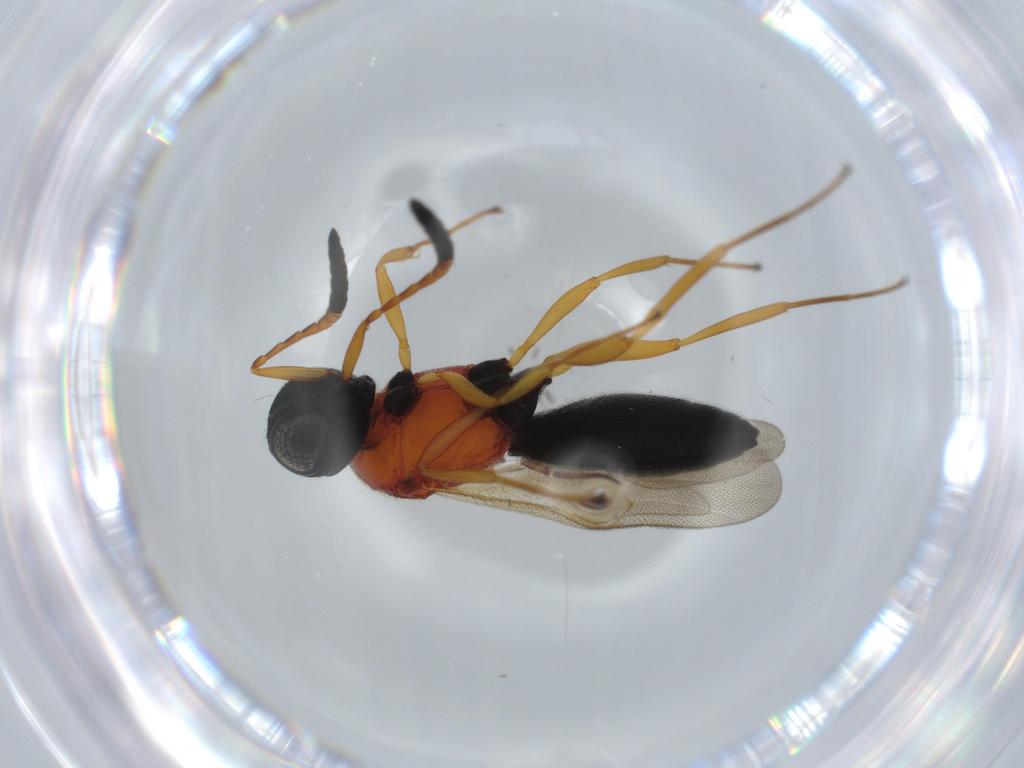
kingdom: Animalia
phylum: Arthropoda
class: Insecta
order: Hymenoptera
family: Scelionidae
